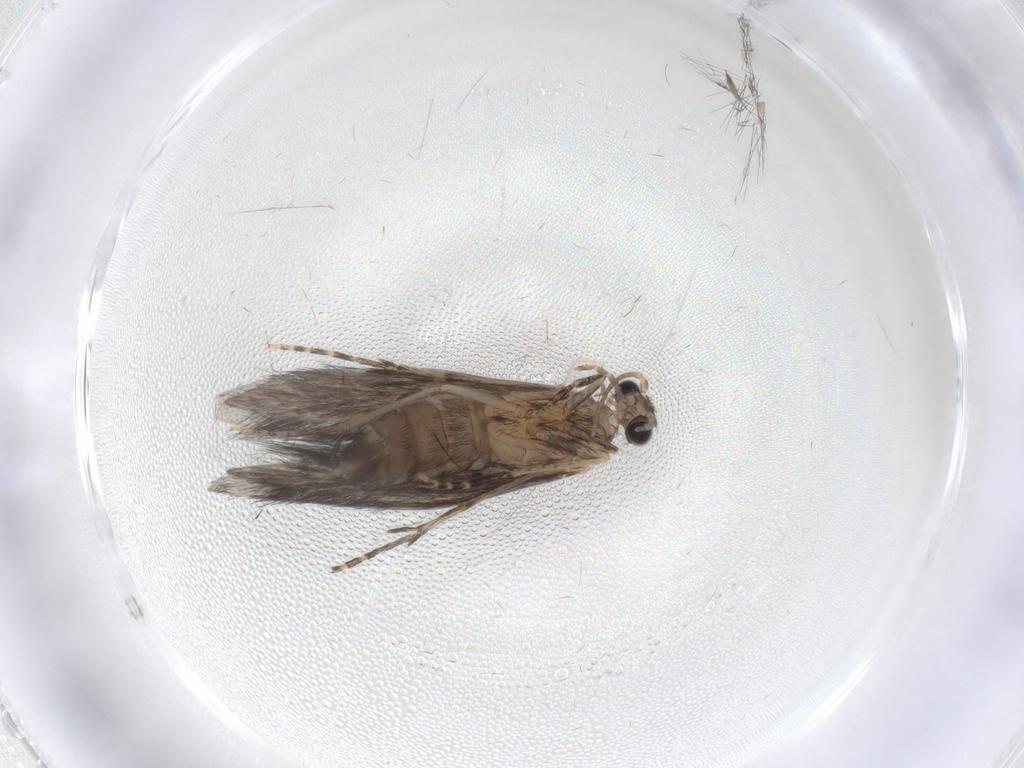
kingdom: Animalia
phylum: Arthropoda
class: Insecta
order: Trichoptera
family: Hydroptilidae
